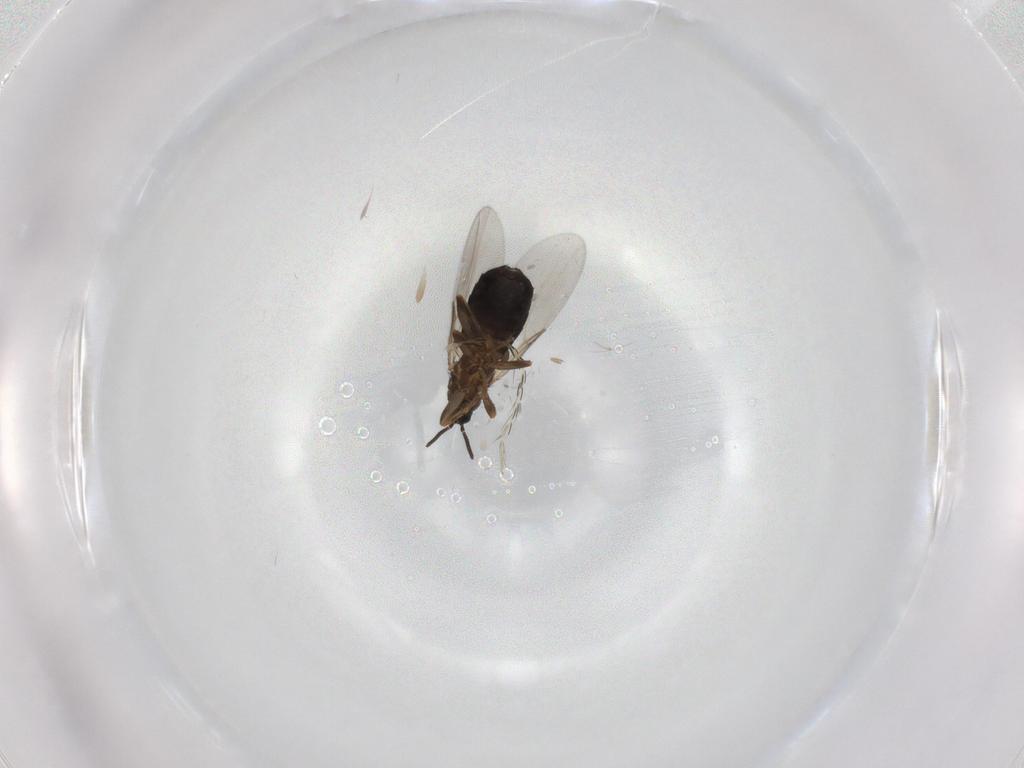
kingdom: Animalia
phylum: Arthropoda
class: Insecta
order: Diptera
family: Scatopsidae
